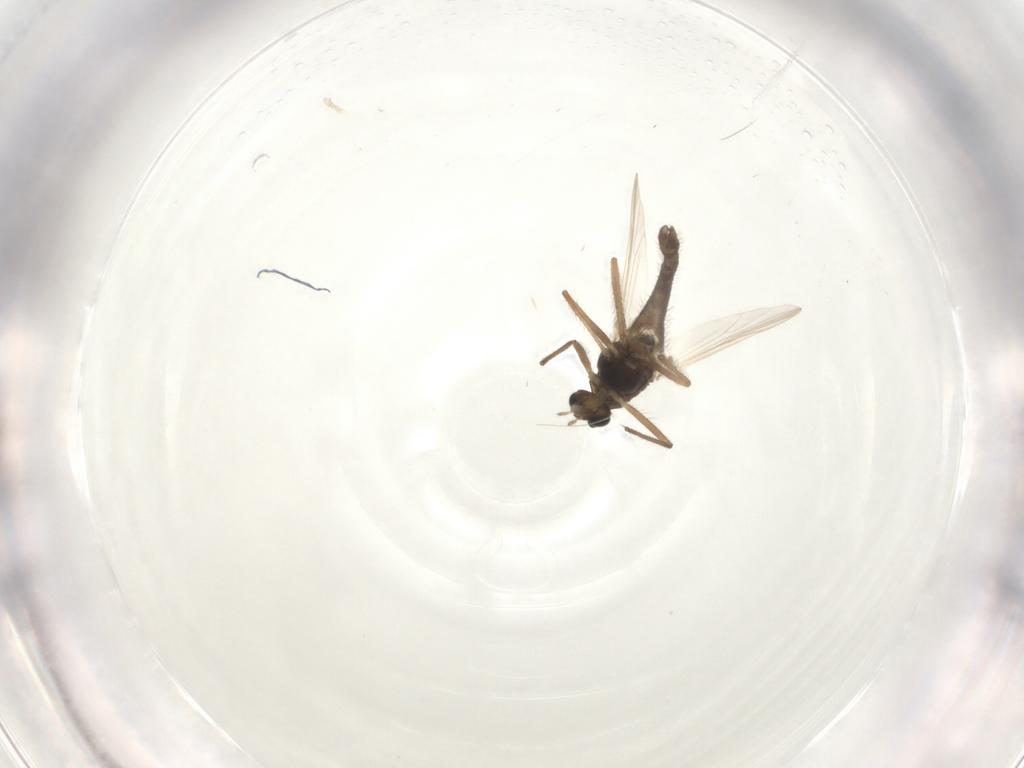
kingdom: Animalia
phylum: Arthropoda
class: Insecta
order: Diptera
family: Chironomidae
